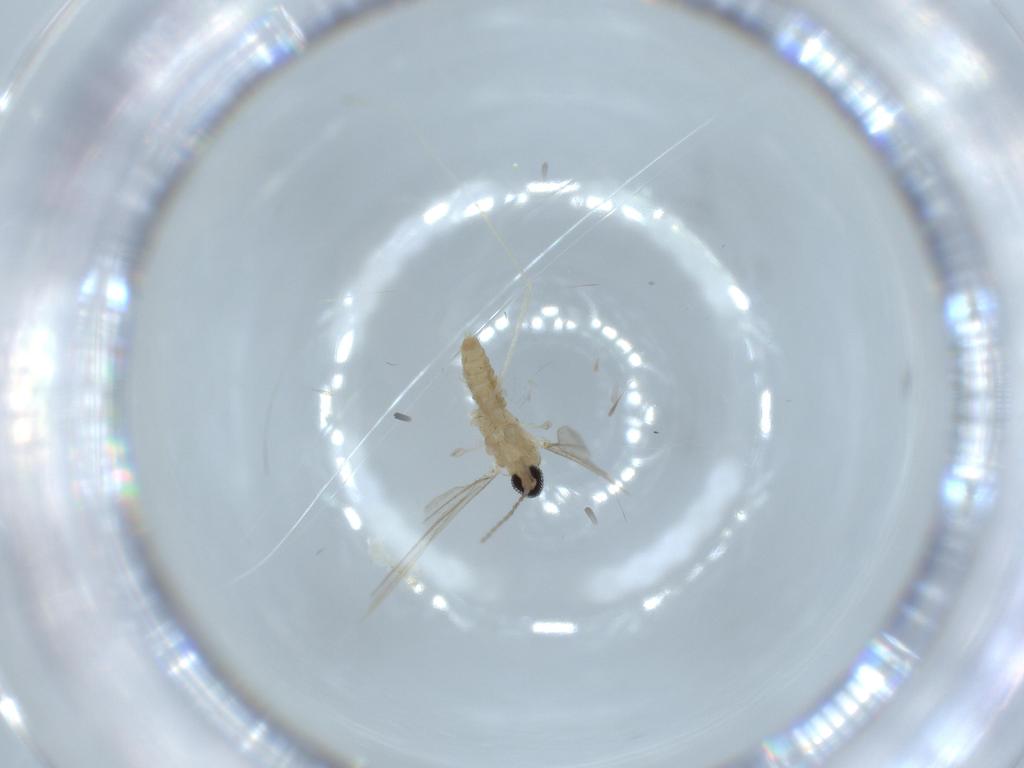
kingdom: Animalia
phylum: Arthropoda
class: Insecta
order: Diptera
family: Cecidomyiidae
